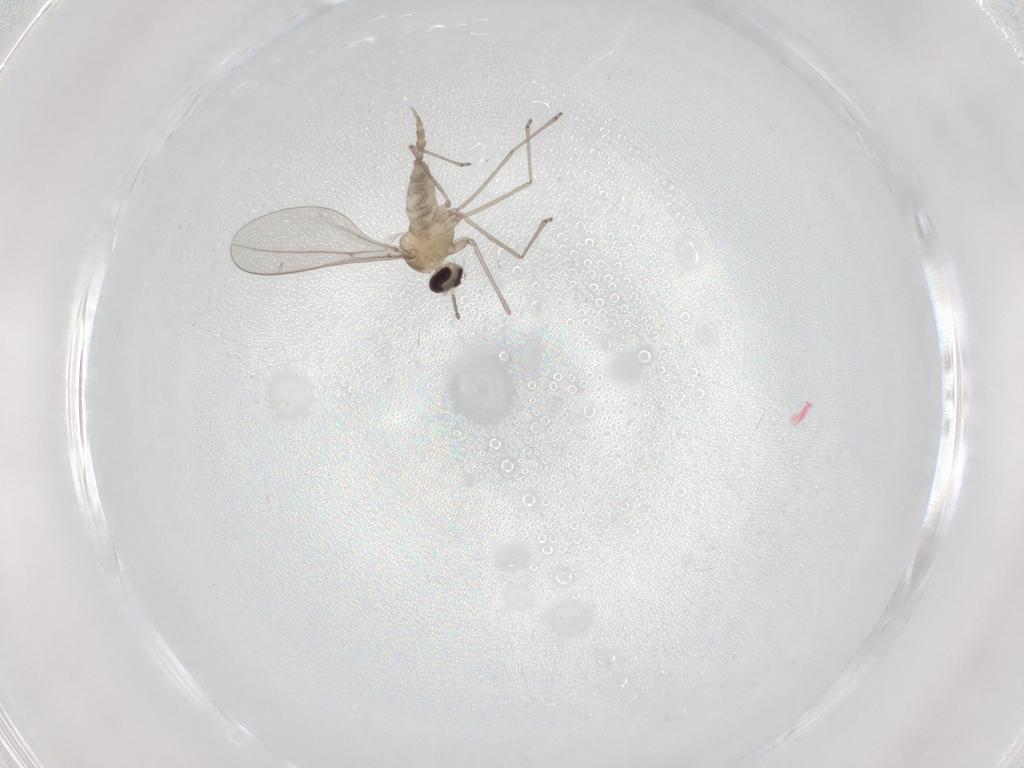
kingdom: Animalia
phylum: Arthropoda
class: Insecta
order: Diptera
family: Cecidomyiidae
